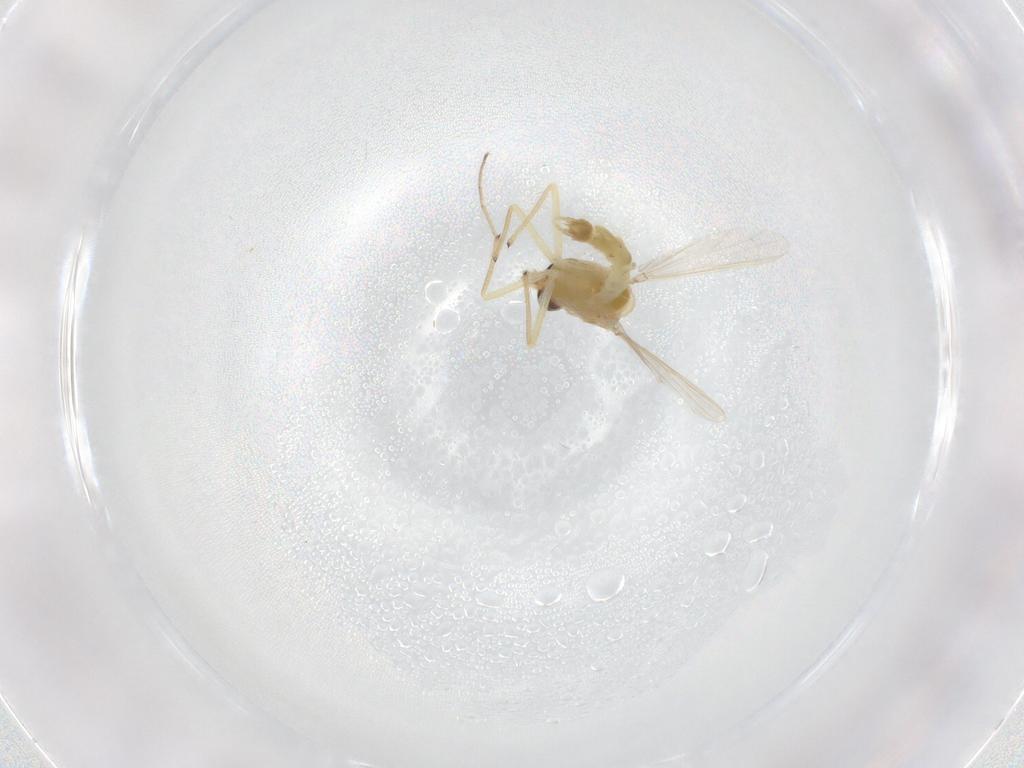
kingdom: Animalia
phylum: Arthropoda
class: Insecta
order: Diptera
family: Chironomidae
